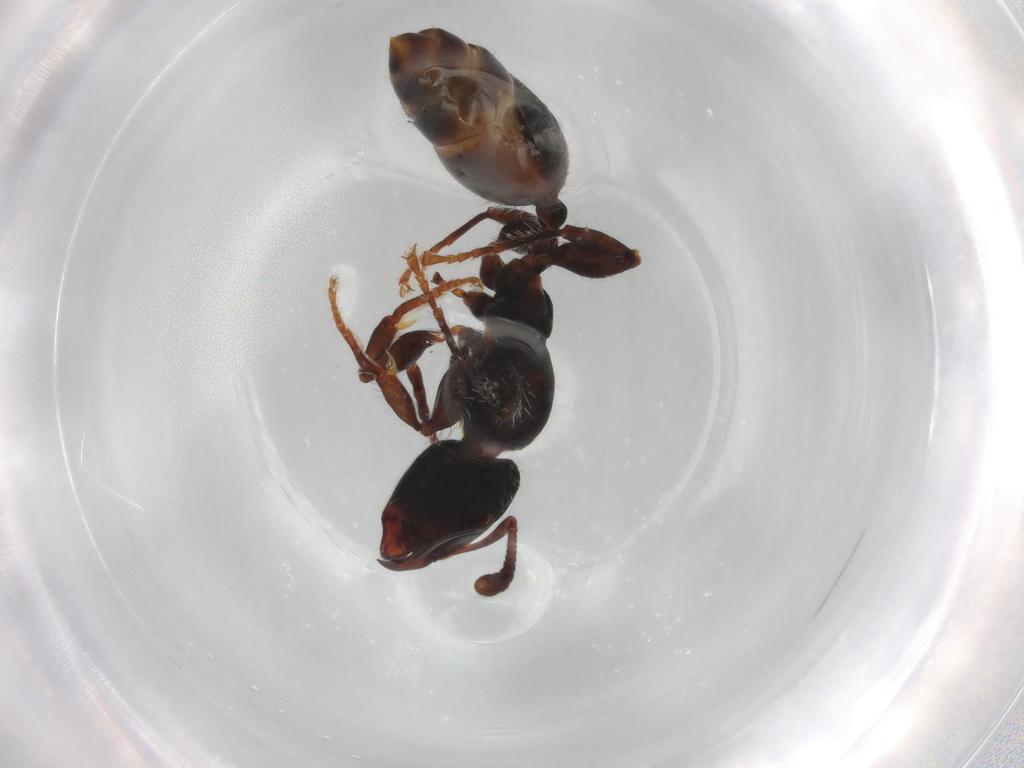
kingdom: Animalia
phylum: Arthropoda
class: Insecta
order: Hymenoptera
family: Formicidae
